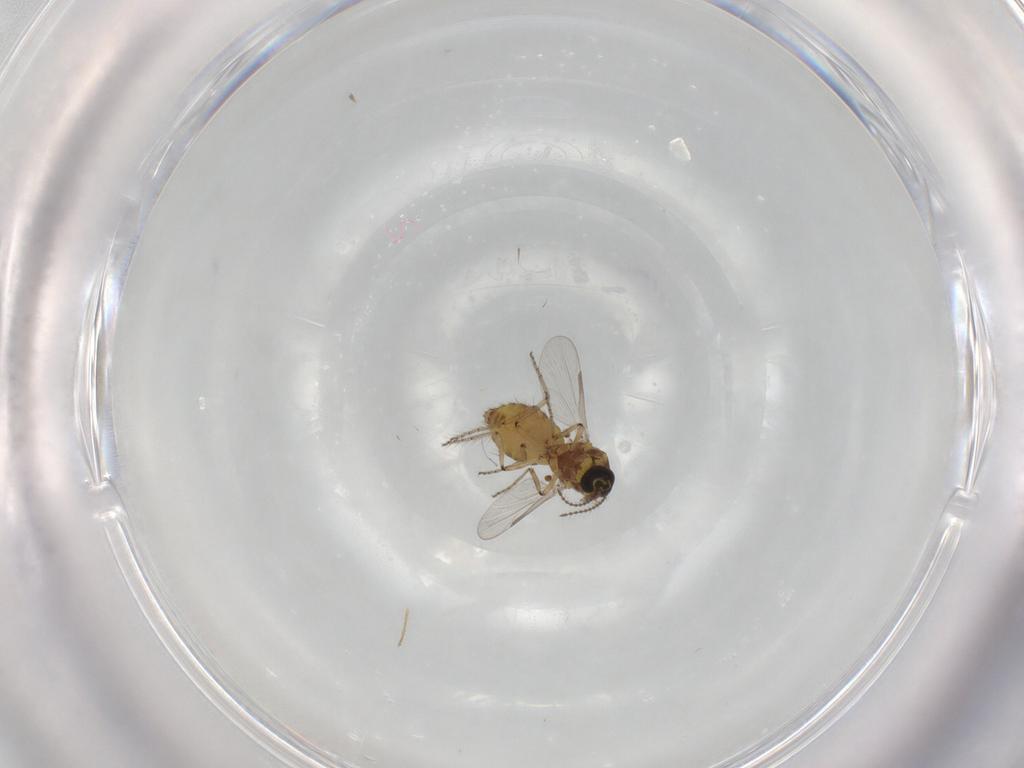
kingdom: Animalia
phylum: Arthropoda
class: Insecta
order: Diptera
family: Ceratopogonidae
